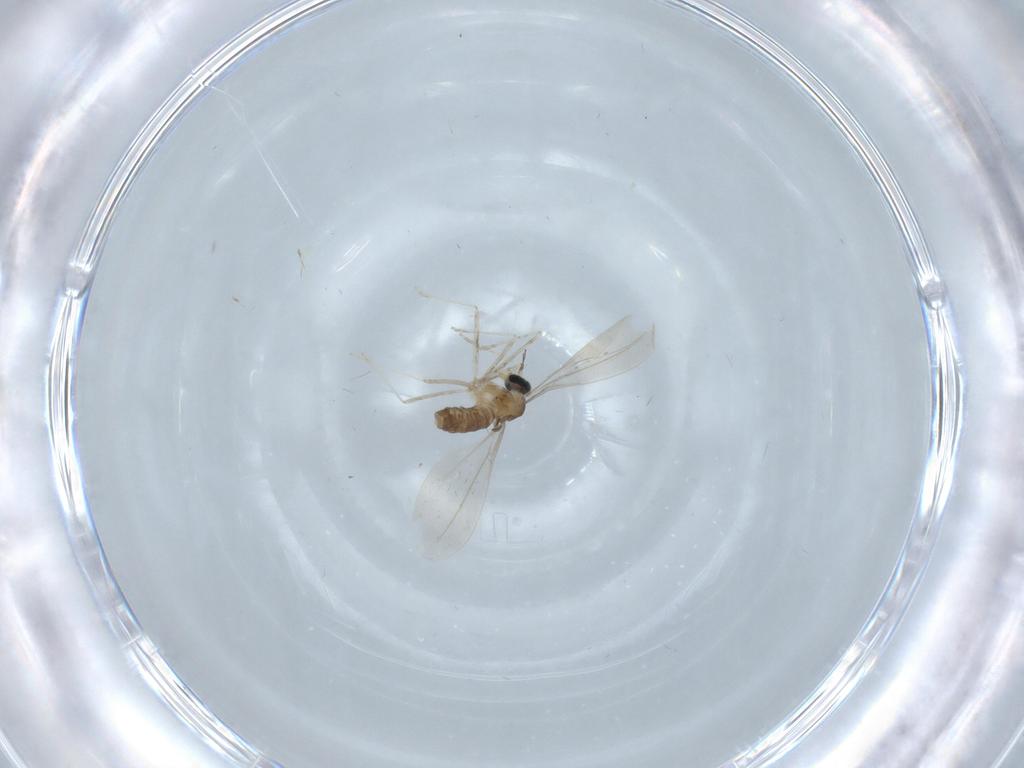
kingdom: Animalia
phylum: Arthropoda
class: Insecta
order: Diptera
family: Cecidomyiidae
